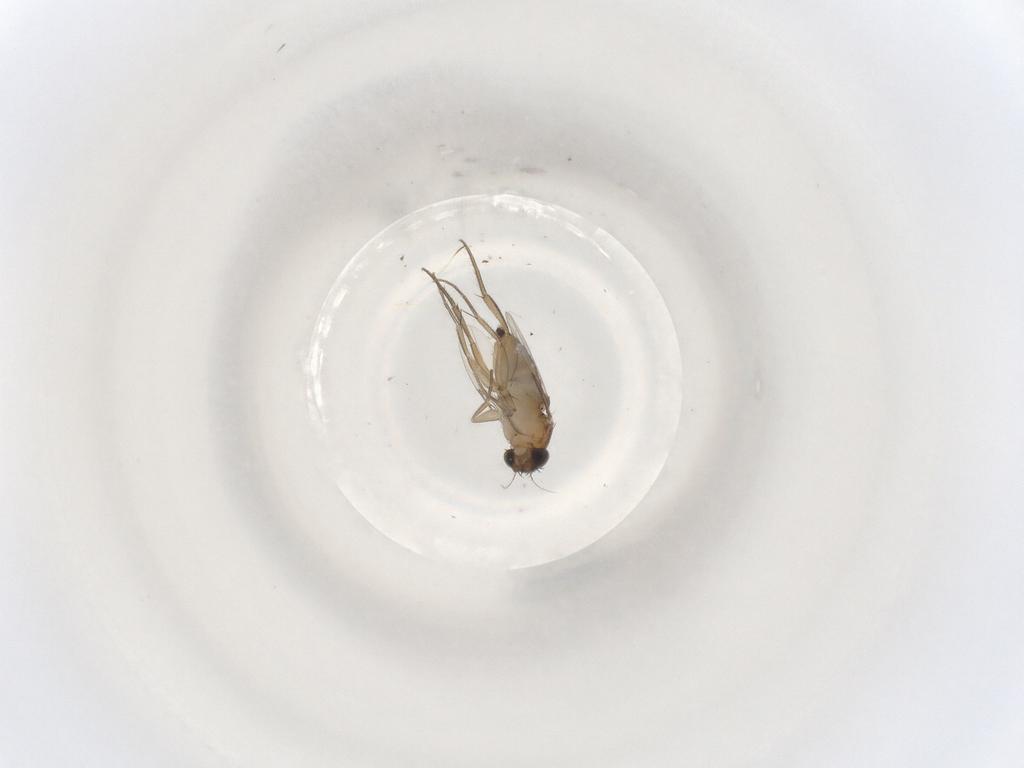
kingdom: Animalia
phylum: Arthropoda
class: Insecta
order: Diptera
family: Phoridae
